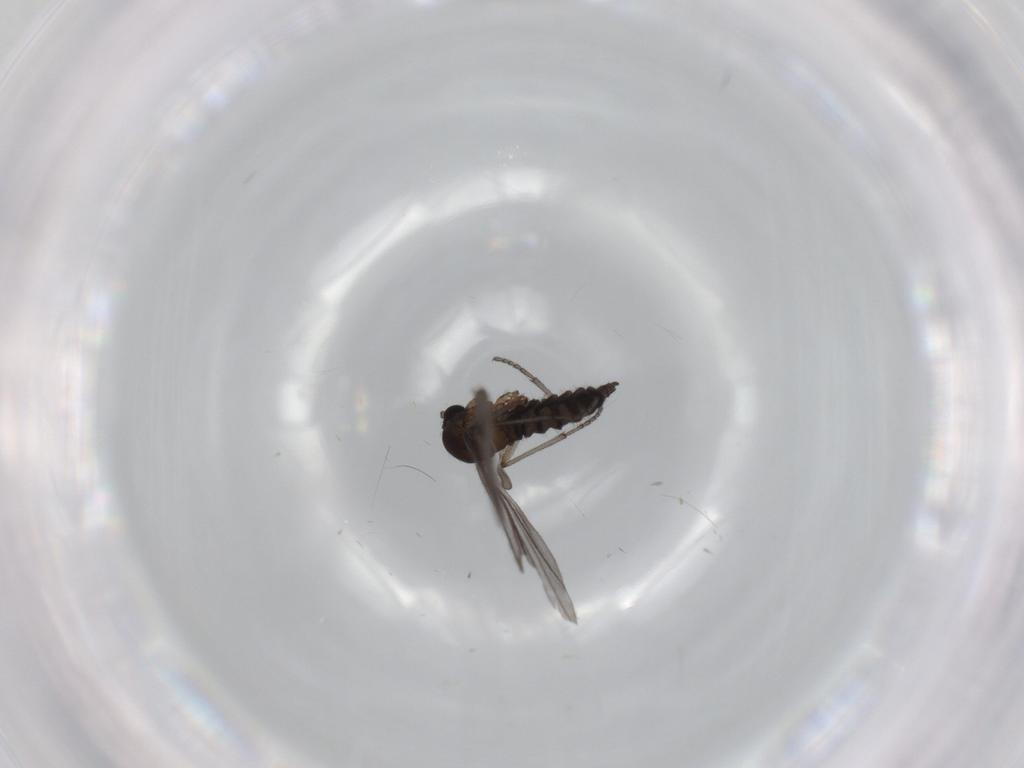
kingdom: Animalia
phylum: Arthropoda
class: Insecta
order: Diptera
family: Sciaridae
